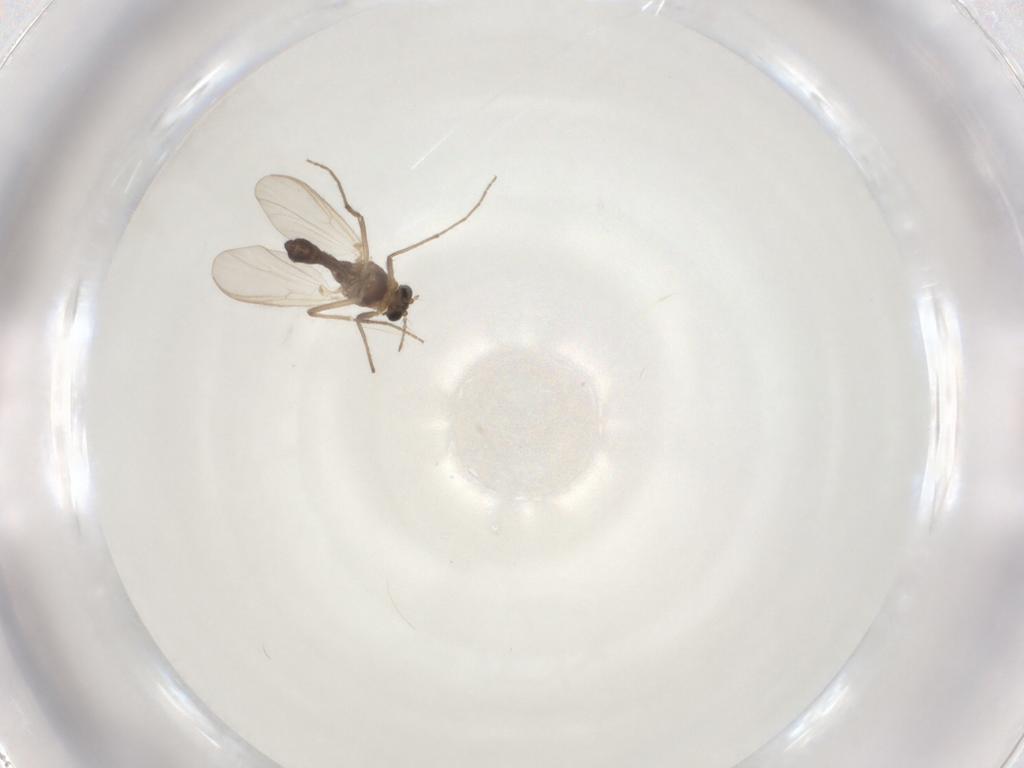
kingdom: Animalia
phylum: Arthropoda
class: Insecta
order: Diptera
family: Chironomidae
